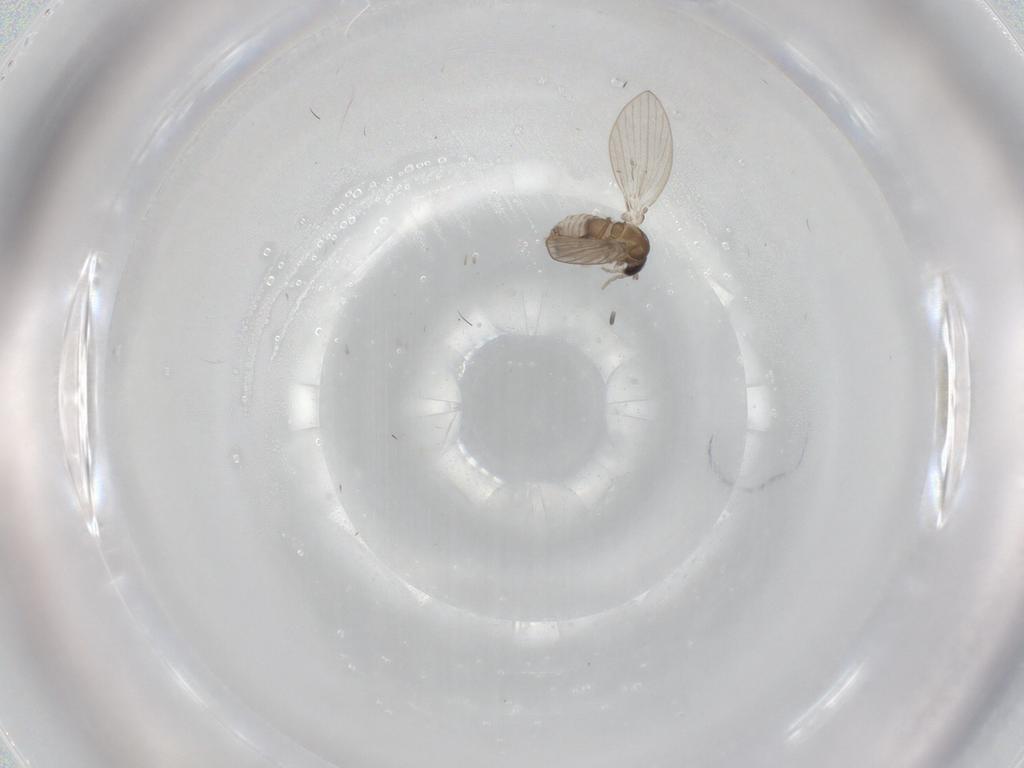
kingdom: Animalia
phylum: Arthropoda
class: Insecta
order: Diptera
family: Psychodidae
